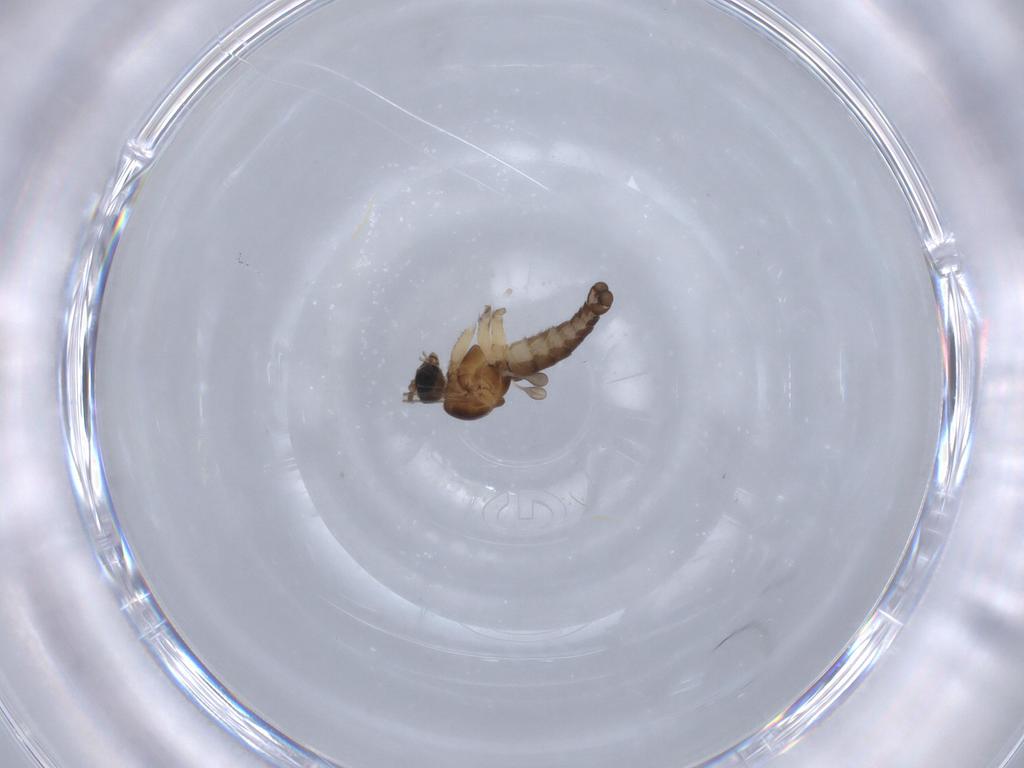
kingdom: Animalia
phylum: Arthropoda
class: Insecta
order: Diptera
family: Sciaridae
